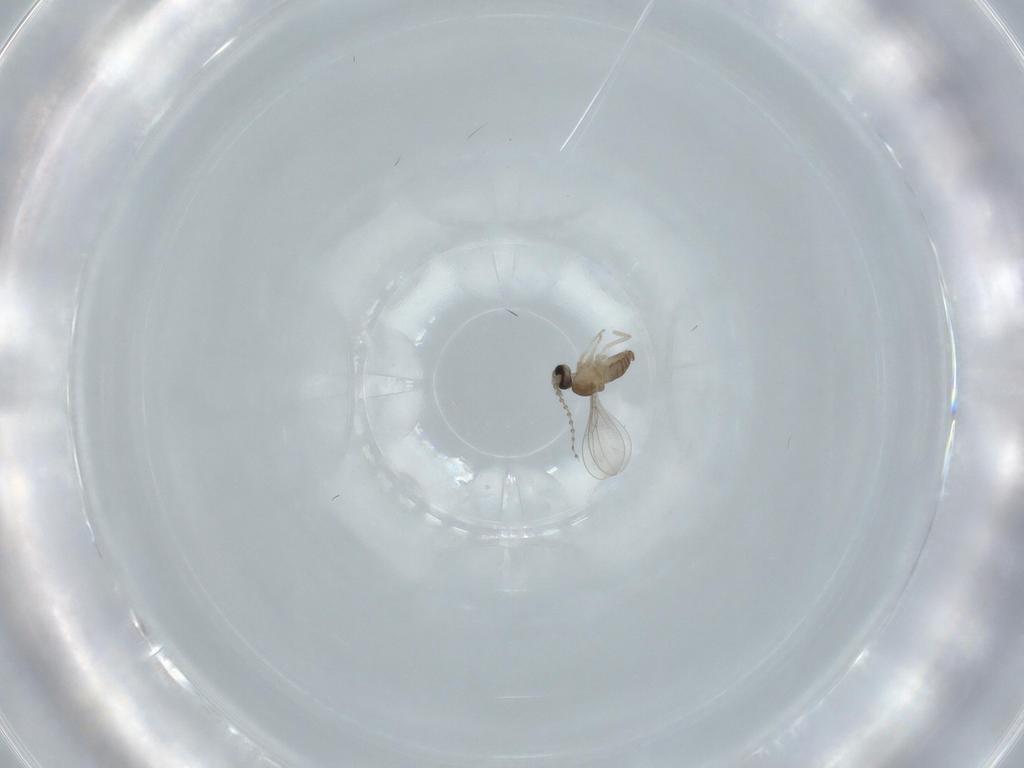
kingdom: Animalia
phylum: Arthropoda
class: Insecta
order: Diptera
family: Cecidomyiidae
